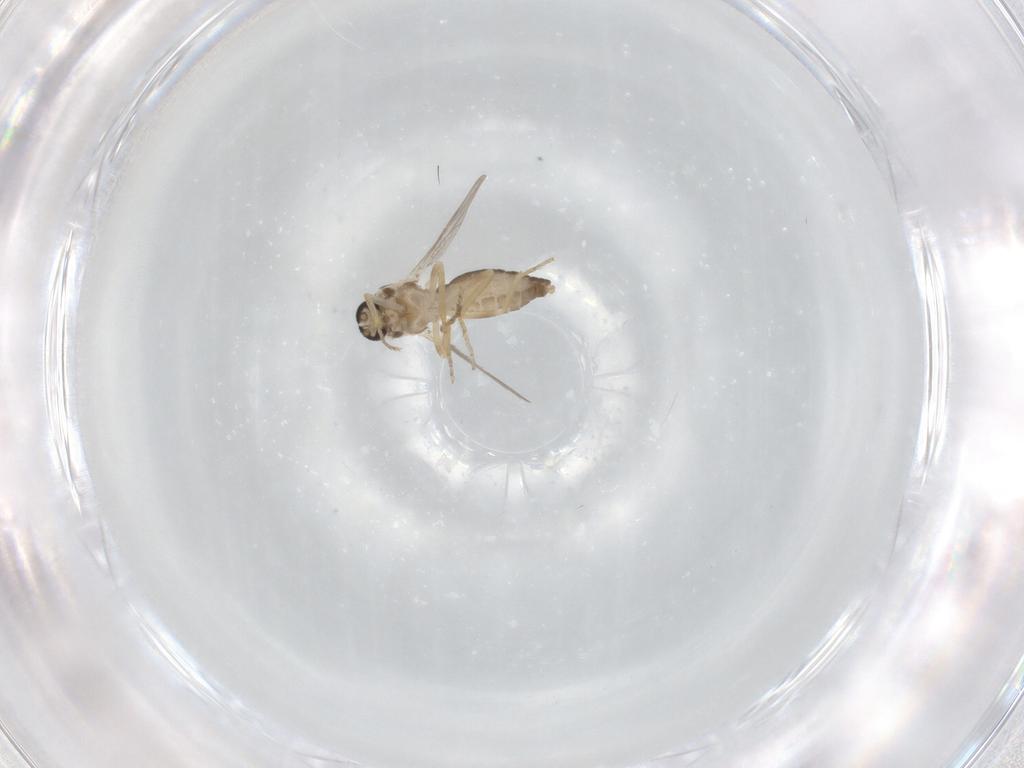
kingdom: Animalia
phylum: Arthropoda
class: Insecta
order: Diptera
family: Ceratopogonidae
